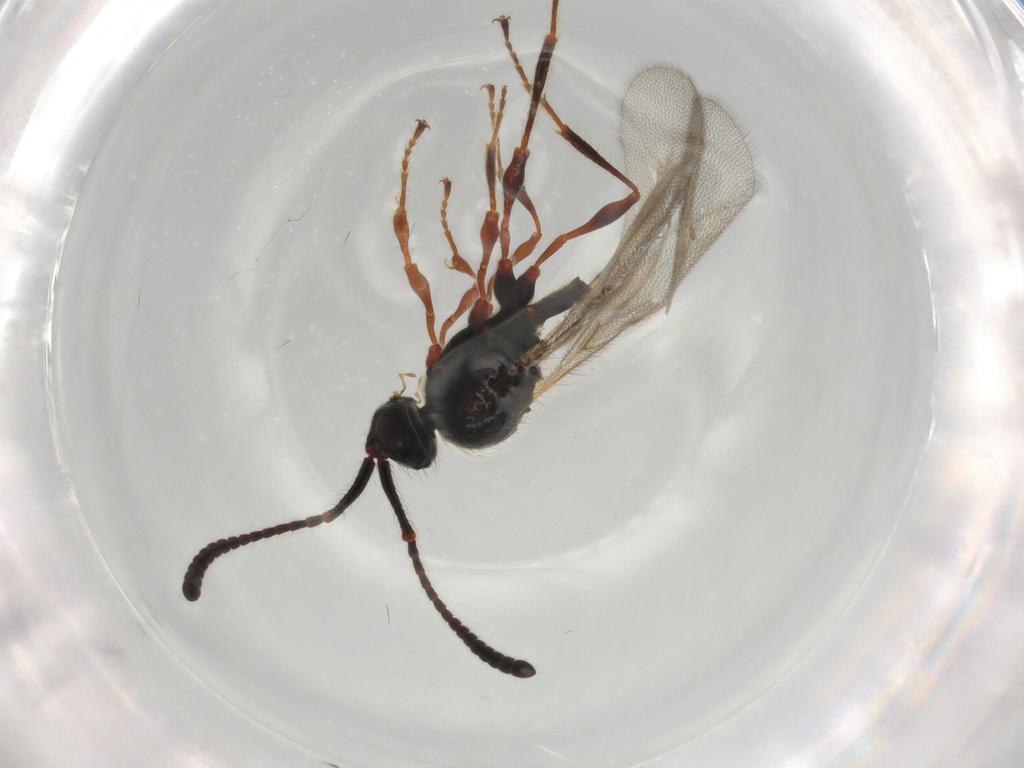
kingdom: Animalia
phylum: Arthropoda
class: Insecta
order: Hymenoptera
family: Diapriidae
